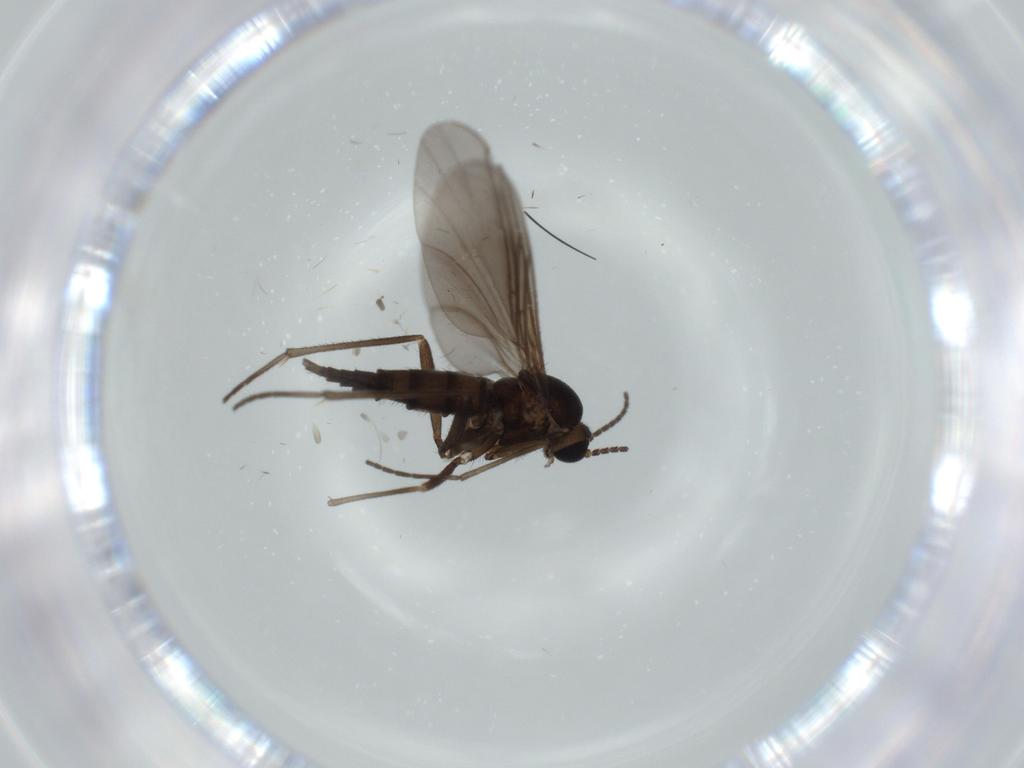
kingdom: Animalia
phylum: Arthropoda
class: Insecta
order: Diptera
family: Sciaridae
